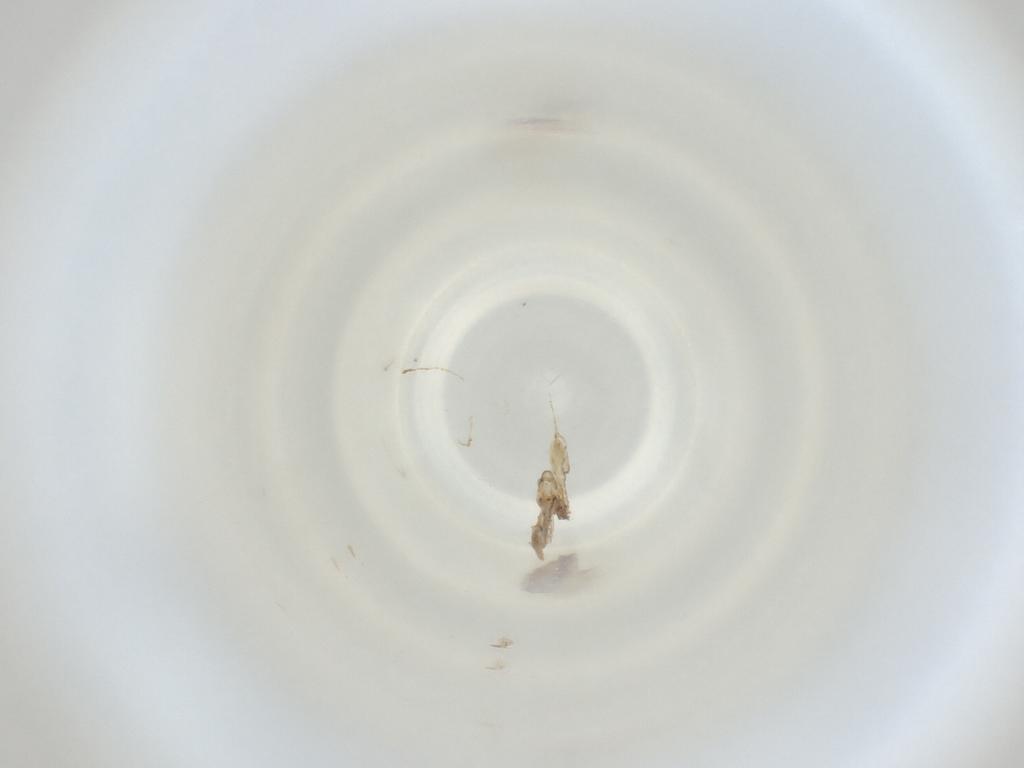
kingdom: Animalia
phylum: Arthropoda
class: Insecta
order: Diptera
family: Cecidomyiidae
